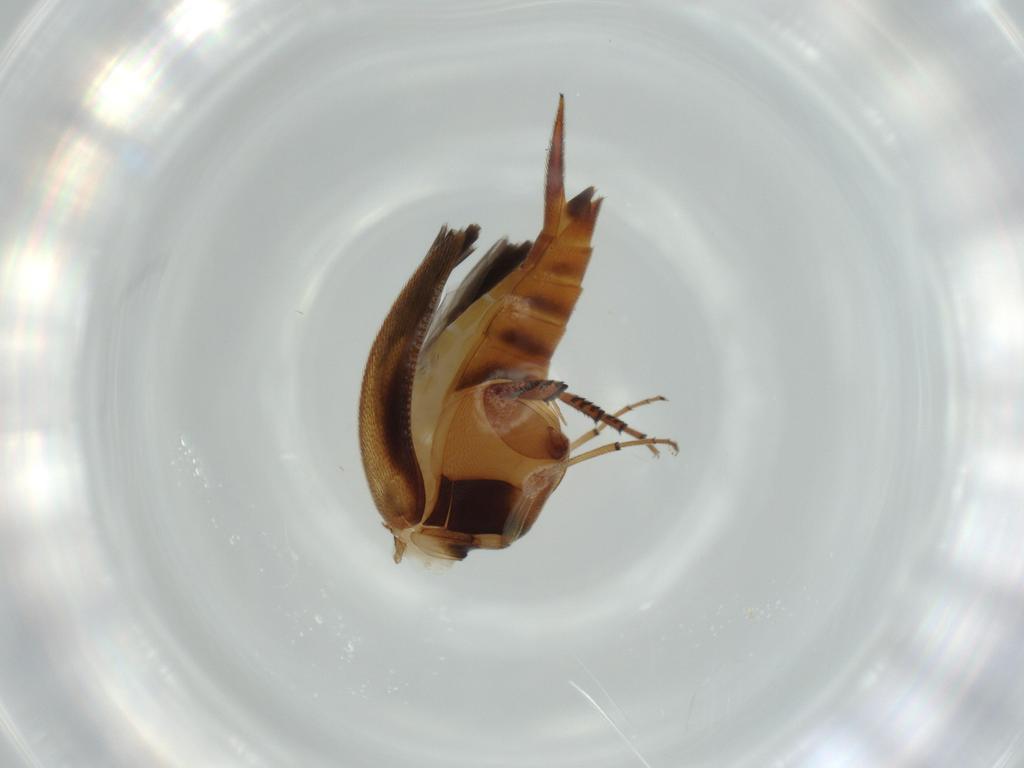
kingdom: Animalia
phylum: Arthropoda
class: Insecta
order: Coleoptera
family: Mordellidae
